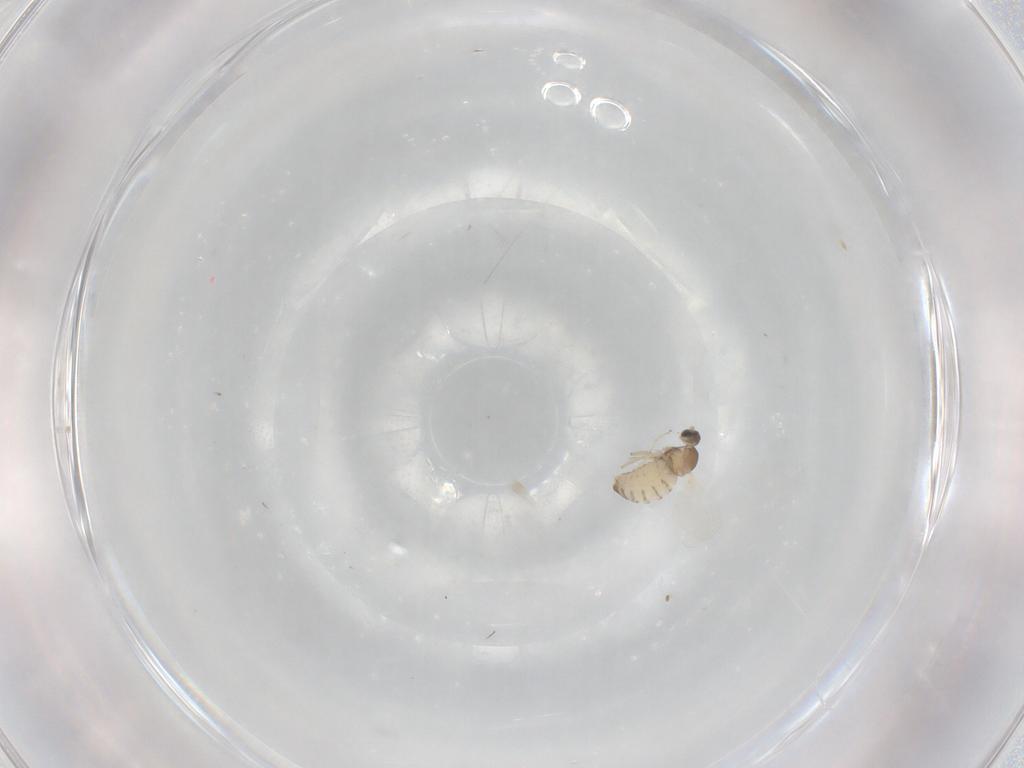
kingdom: Animalia
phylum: Arthropoda
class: Insecta
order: Diptera
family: Cecidomyiidae
